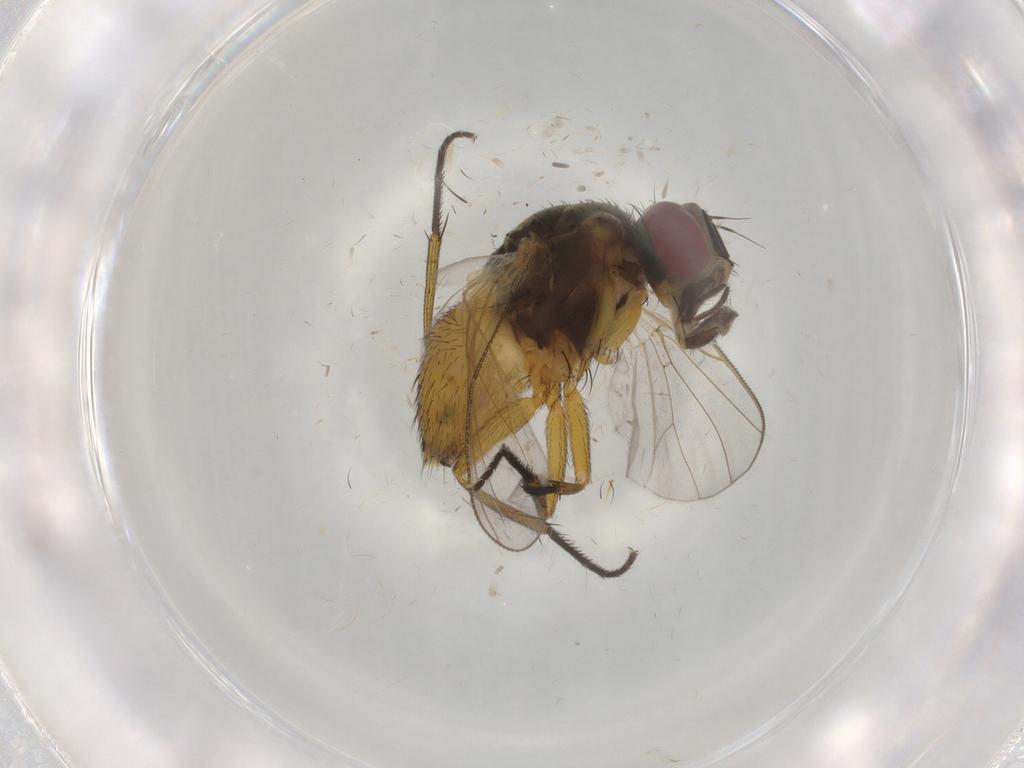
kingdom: Animalia
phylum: Arthropoda
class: Insecta
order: Diptera
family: Muscidae
